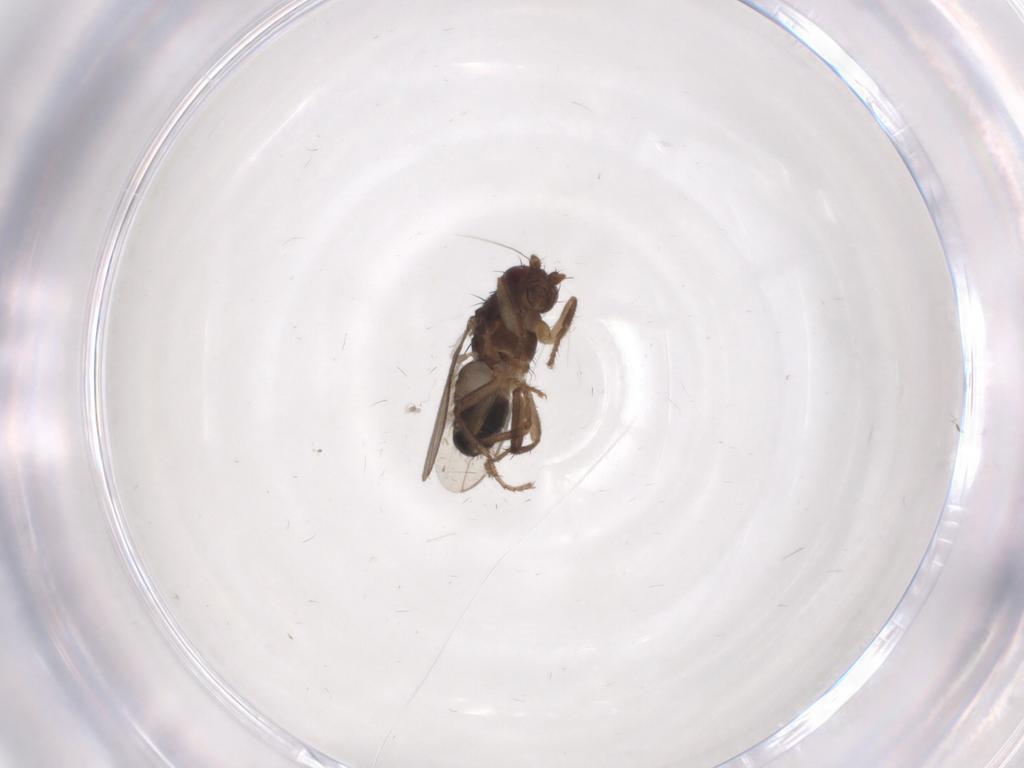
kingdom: Animalia
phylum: Arthropoda
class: Insecta
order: Diptera
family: Sphaeroceridae
